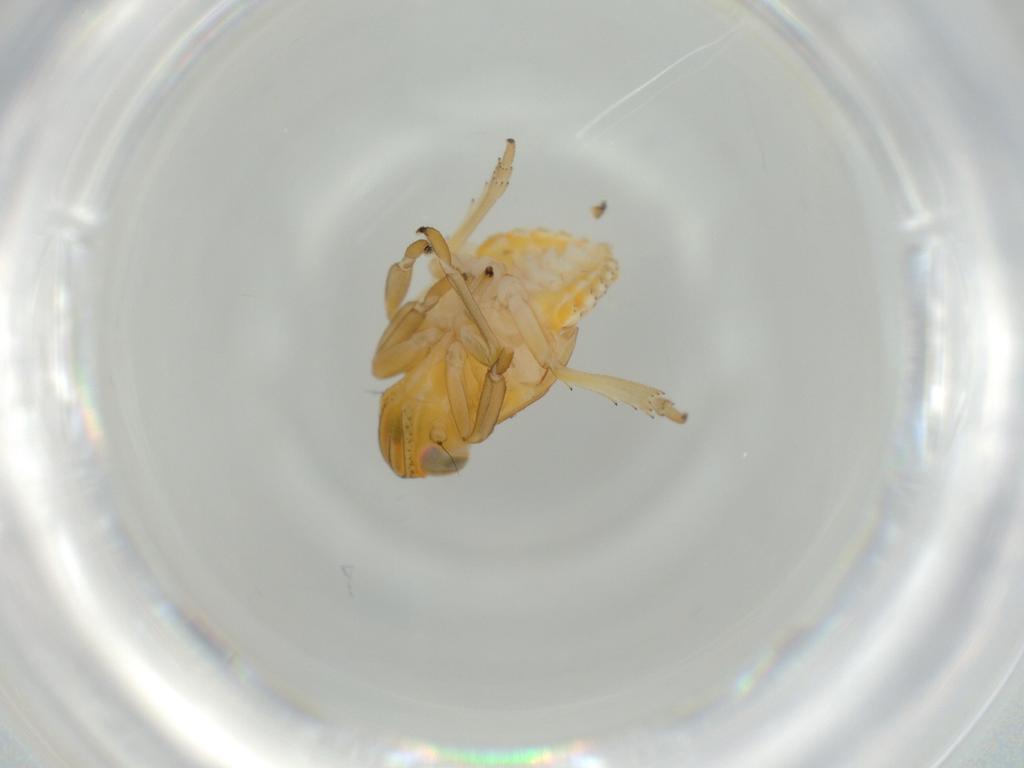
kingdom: Animalia
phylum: Arthropoda
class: Insecta
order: Hemiptera
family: Issidae
